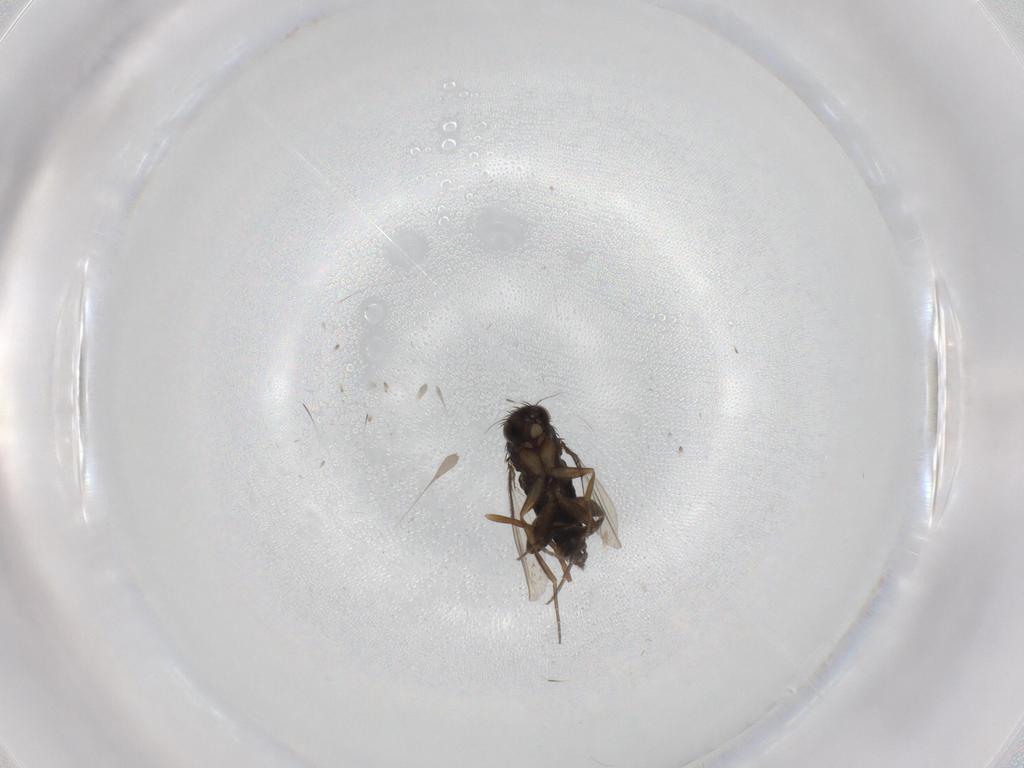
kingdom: Animalia
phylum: Arthropoda
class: Insecta
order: Diptera
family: Phoridae
